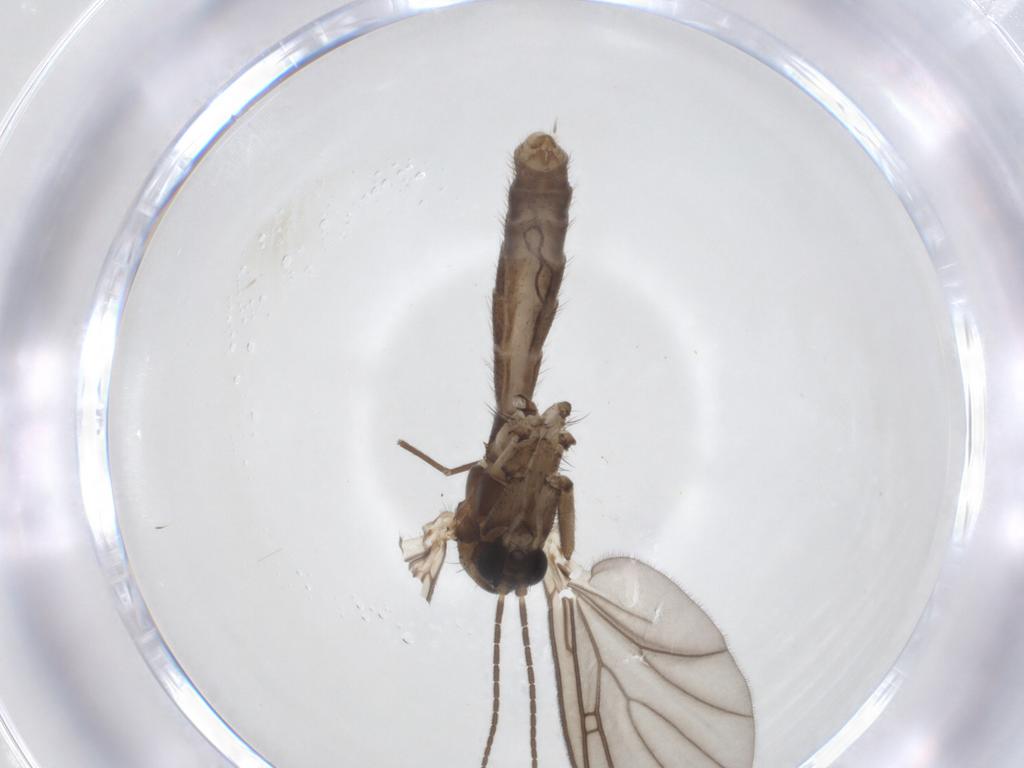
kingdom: Animalia
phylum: Arthropoda
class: Insecta
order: Diptera
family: Chironomidae
